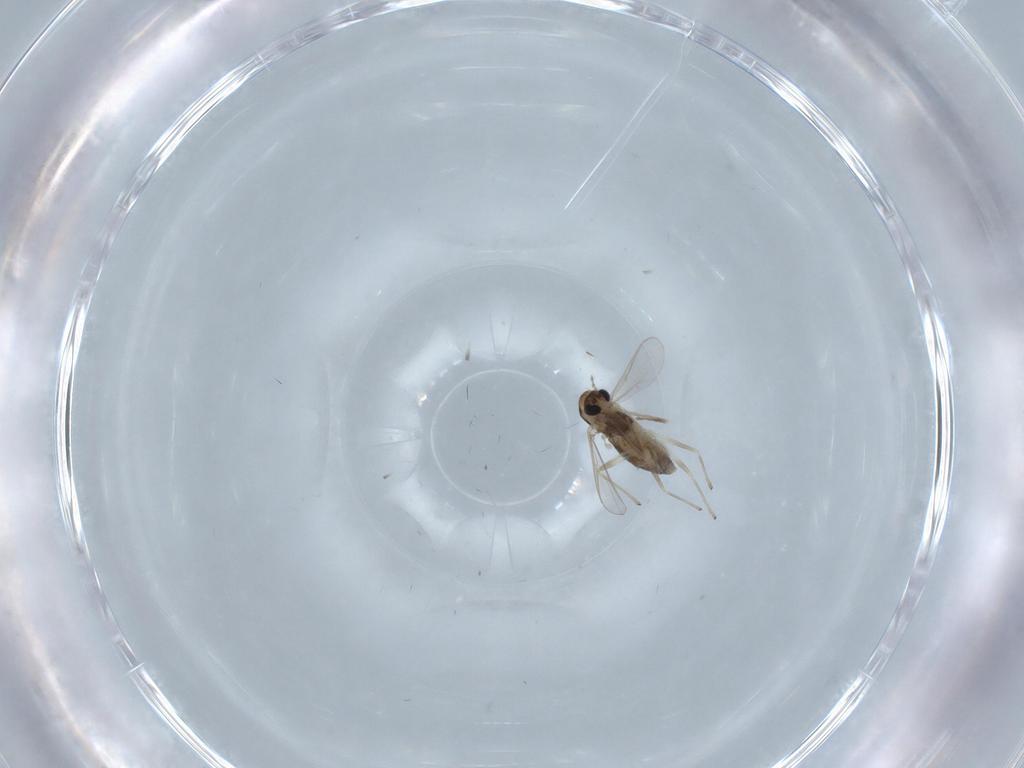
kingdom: Animalia
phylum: Arthropoda
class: Insecta
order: Diptera
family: Chironomidae
